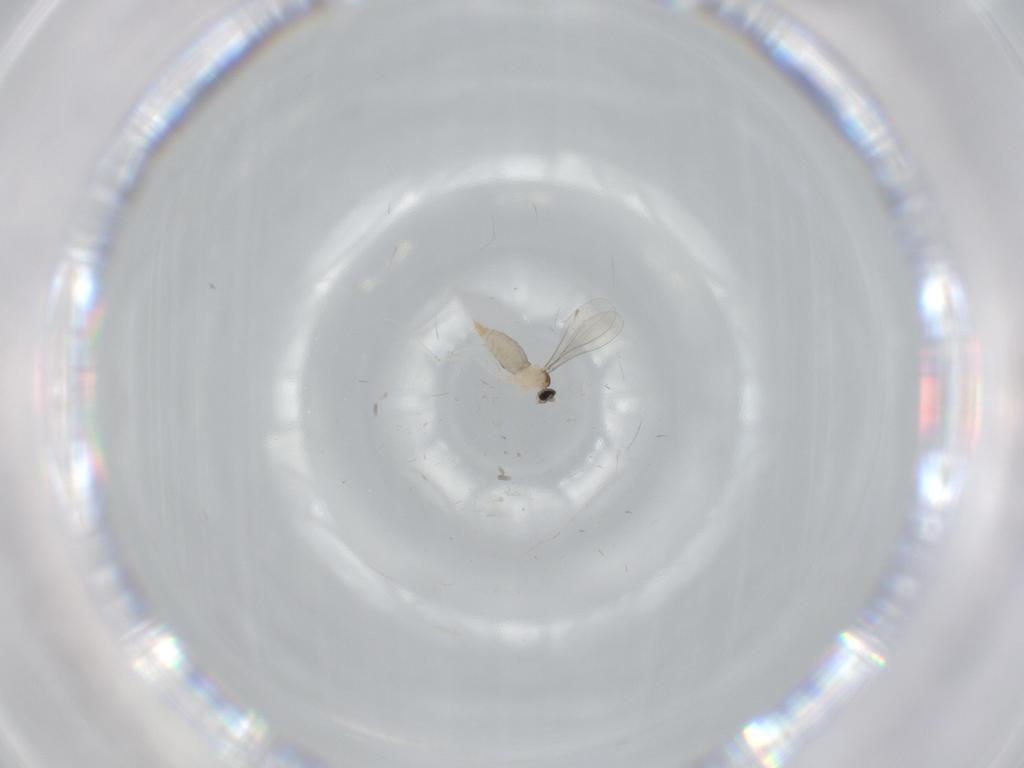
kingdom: Animalia
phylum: Arthropoda
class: Insecta
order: Diptera
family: Dolichopodidae
